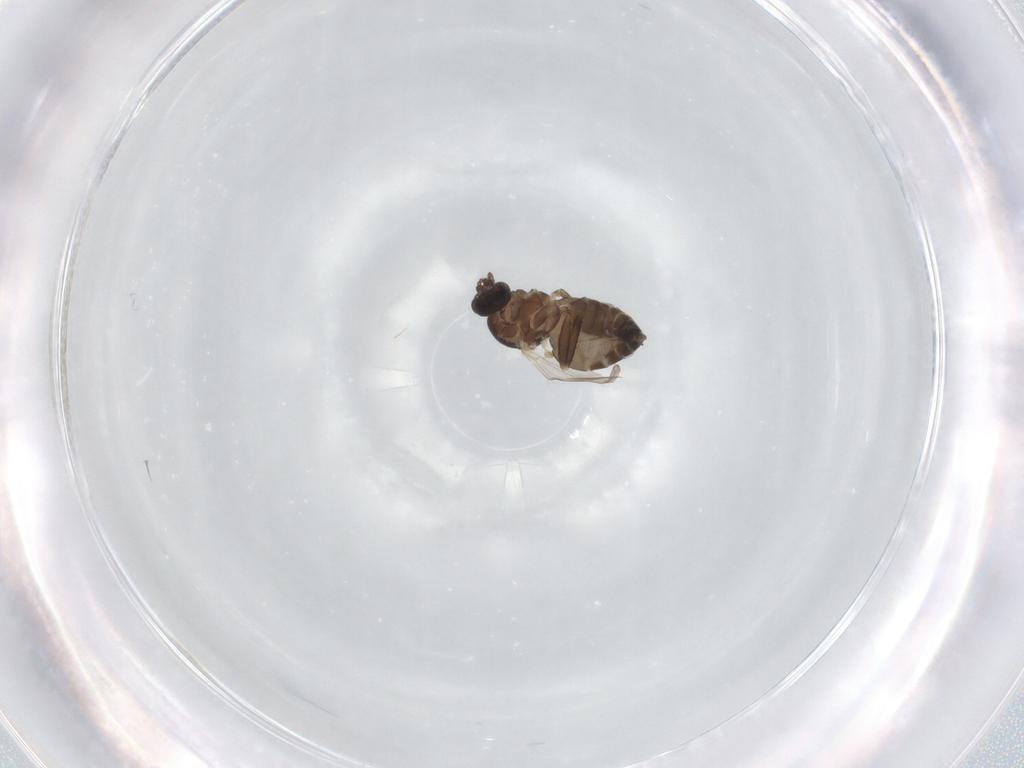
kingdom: Animalia
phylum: Arthropoda
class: Insecta
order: Diptera
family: Ceratopogonidae
